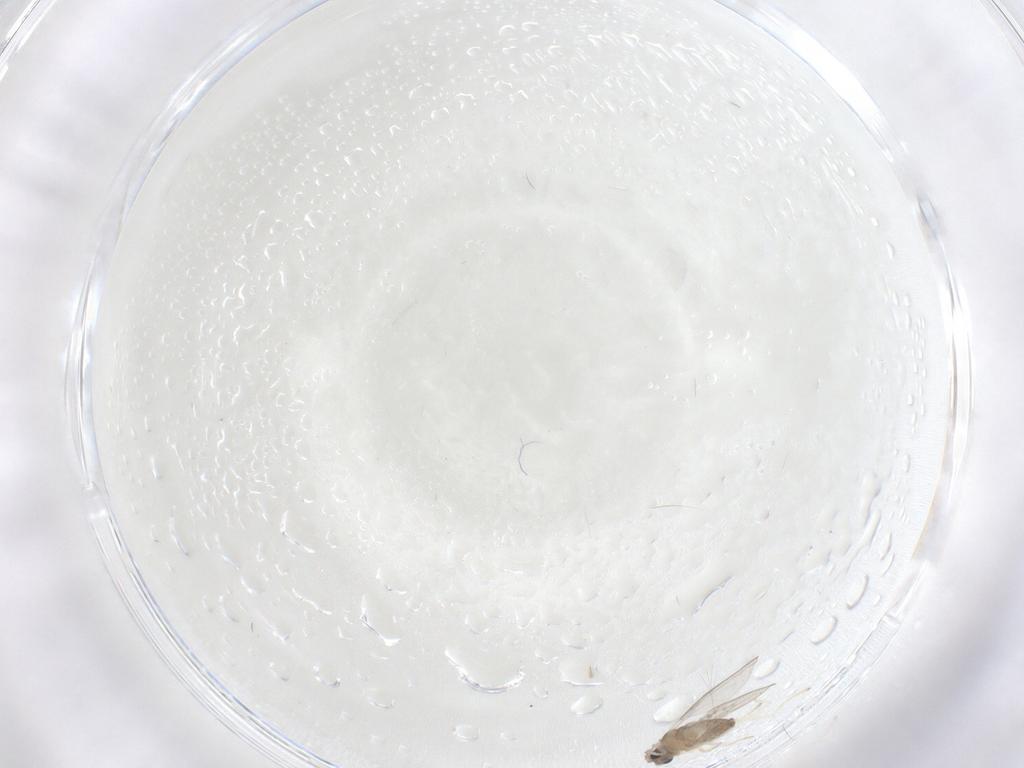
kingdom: Animalia
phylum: Arthropoda
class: Insecta
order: Diptera
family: Cecidomyiidae
